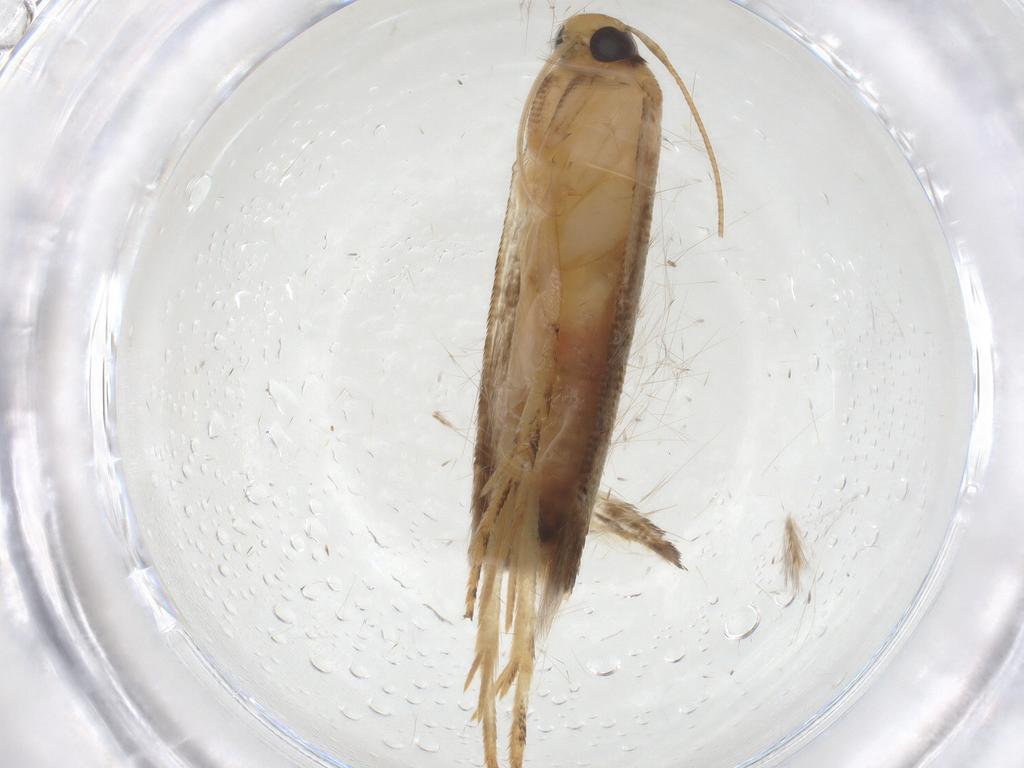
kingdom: Animalia
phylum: Arthropoda
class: Insecta
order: Lepidoptera
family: Momphidae
